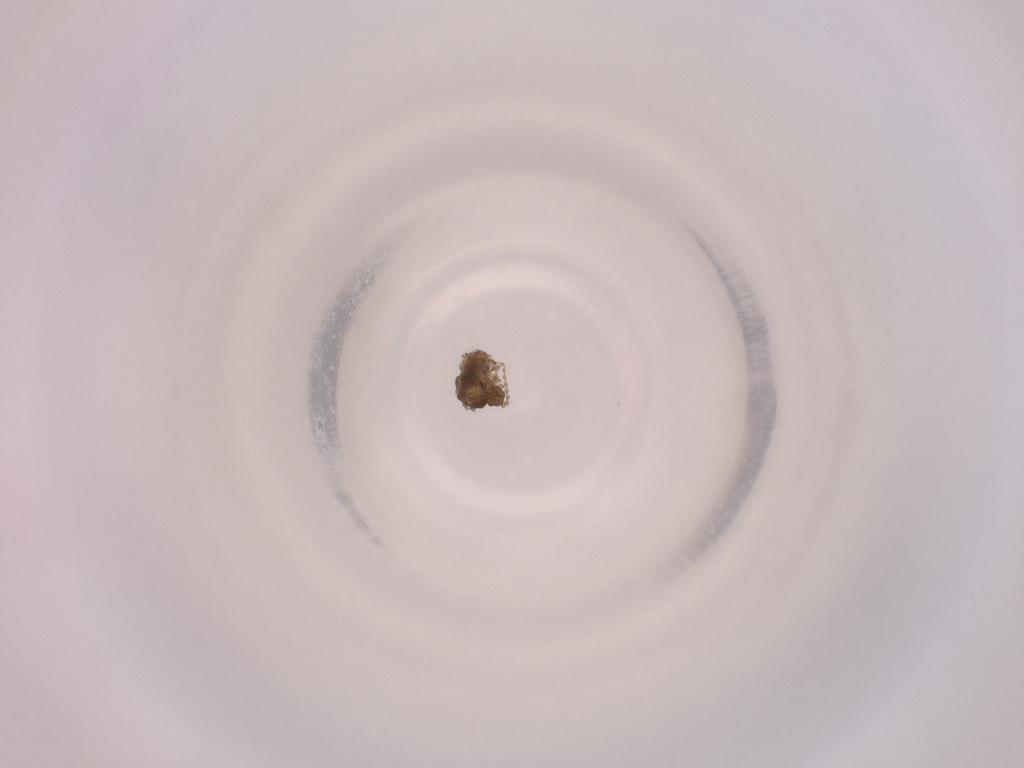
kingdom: Animalia
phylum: Arthropoda
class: Insecta
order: Diptera
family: Cecidomyiidae
